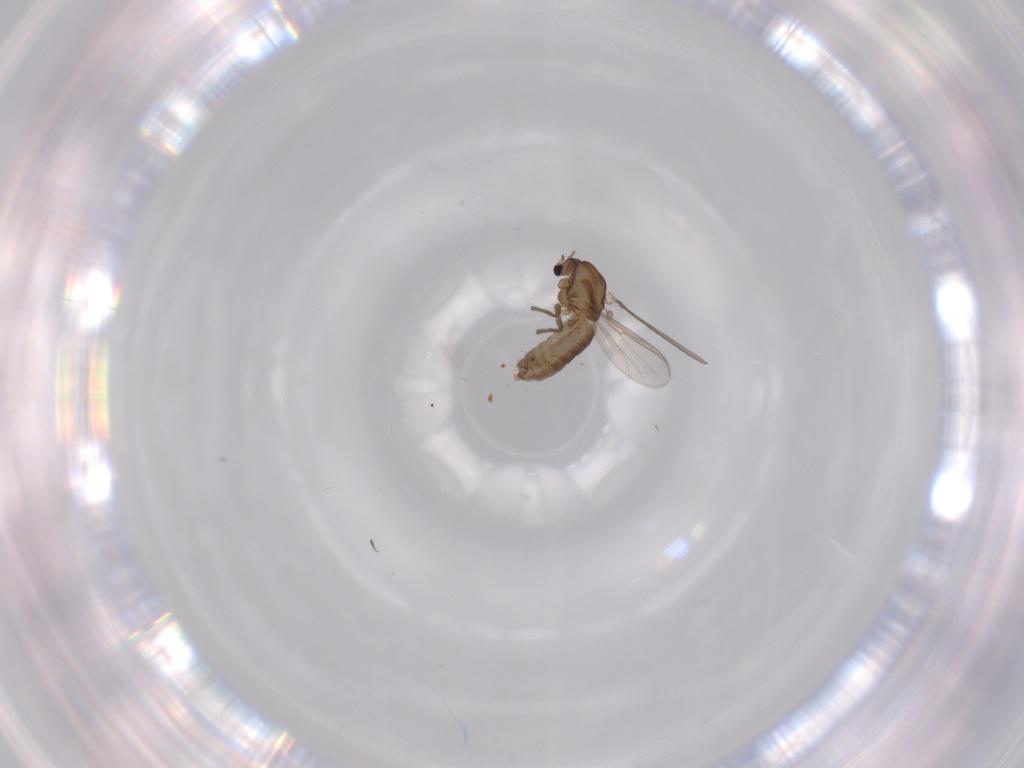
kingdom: Animalia
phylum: Arthropoda
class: Insecta
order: Diptera
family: Chironomidae
